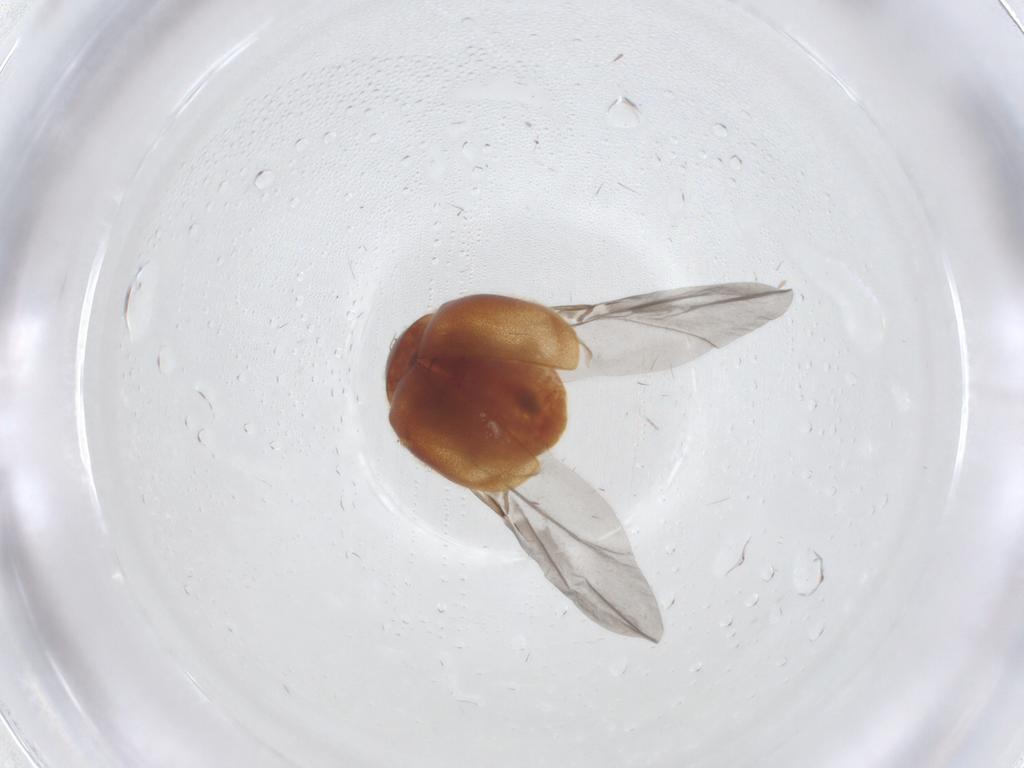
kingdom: Animalia
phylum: Arthropoda
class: Insecta
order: Coleoptera
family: Coccinellidae
